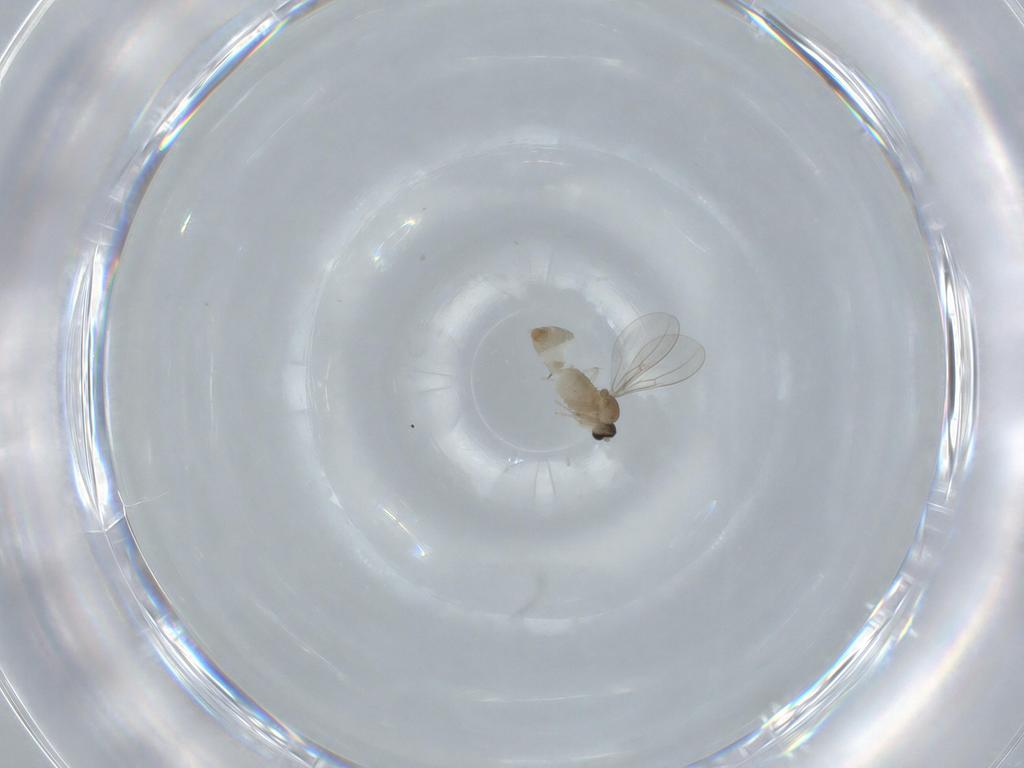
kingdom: Animalia
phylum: Arthropoda
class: Insecta
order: Diptera
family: Cecidomyiidae
